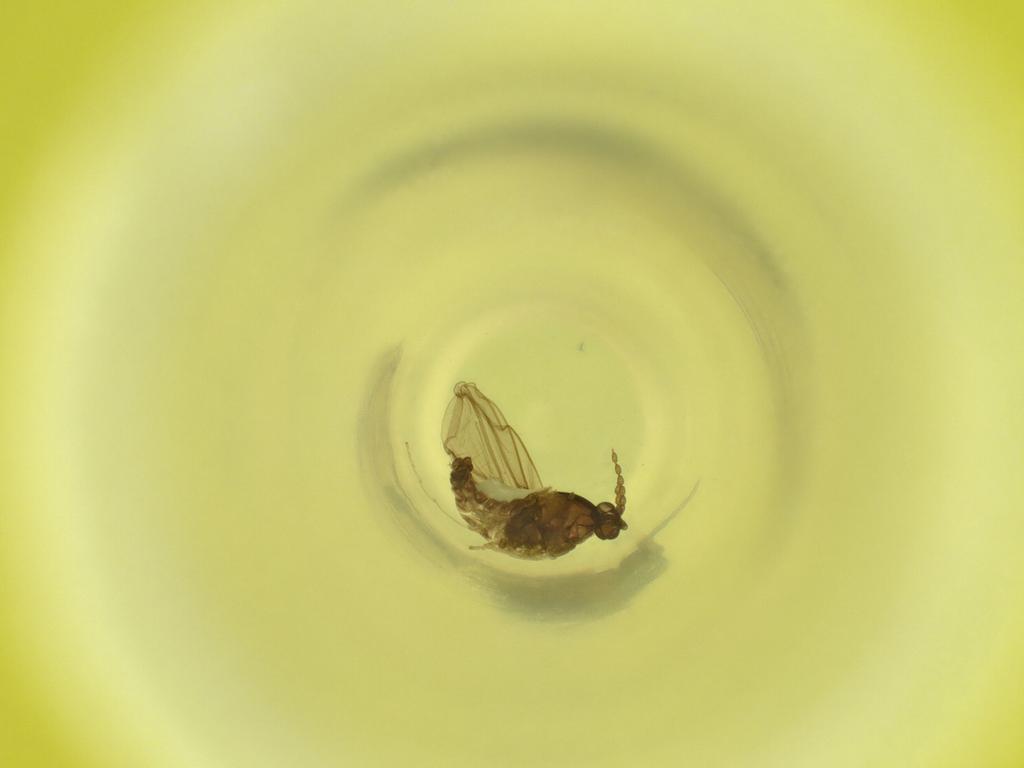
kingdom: Animalia
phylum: Arthropoda
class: Insecta
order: Diptera
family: Cecidomyiidae
